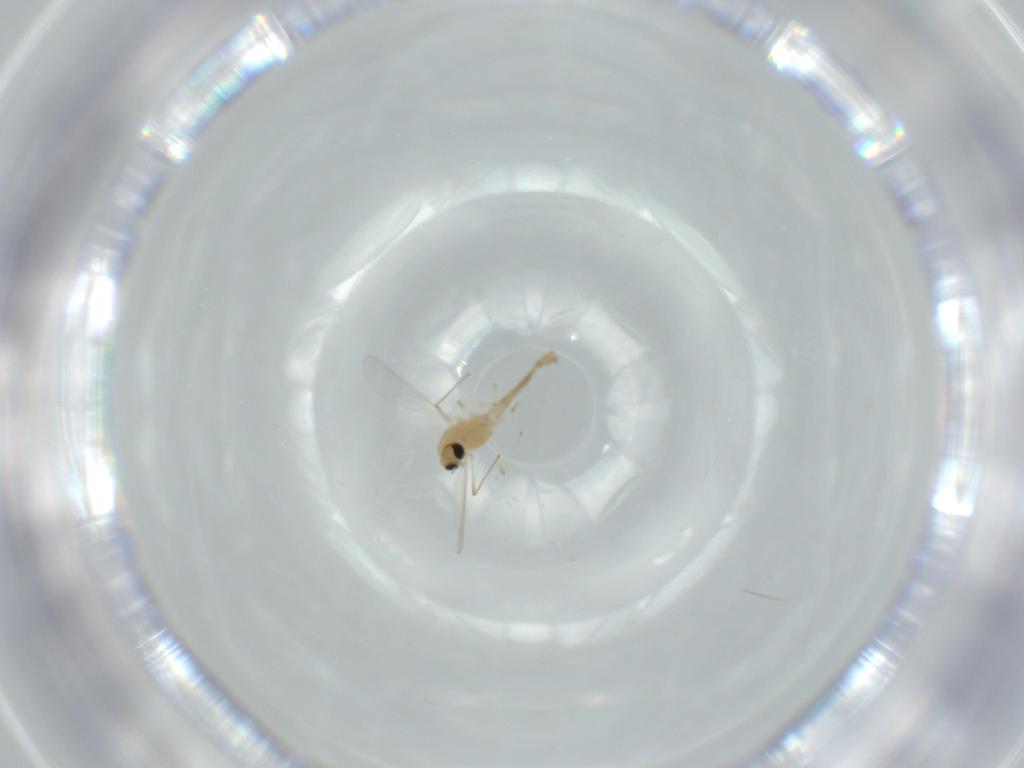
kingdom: Animalia
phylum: Arthropoda
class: Insecta
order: Diptera
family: Chironomidae
